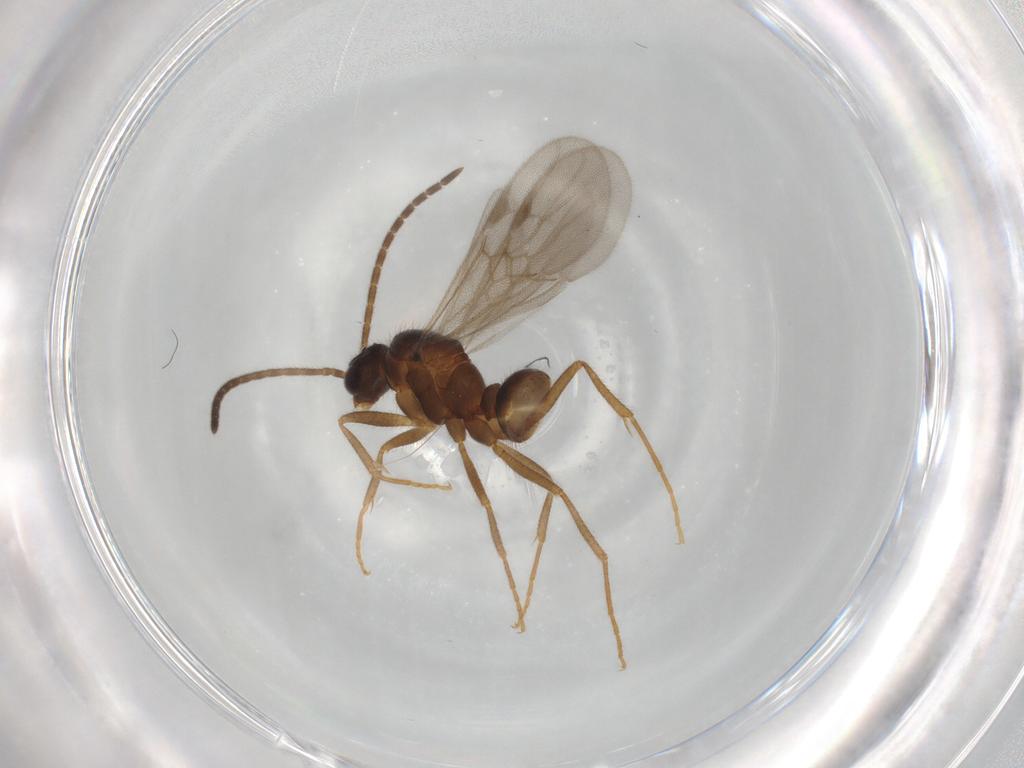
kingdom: Animalia
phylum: Arthropoda
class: Insecta
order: Hymenoptera
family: Formicidae
